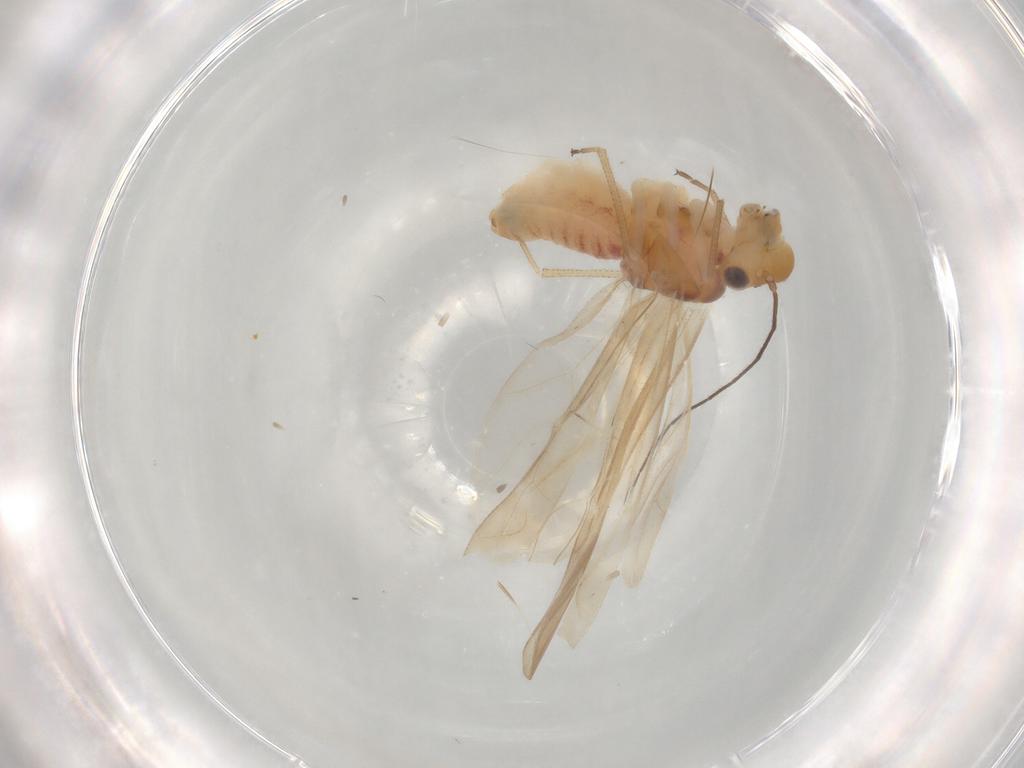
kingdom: Animalia
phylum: Arthropoda
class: Insecta
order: Psocodea
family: Caeciliusidae
